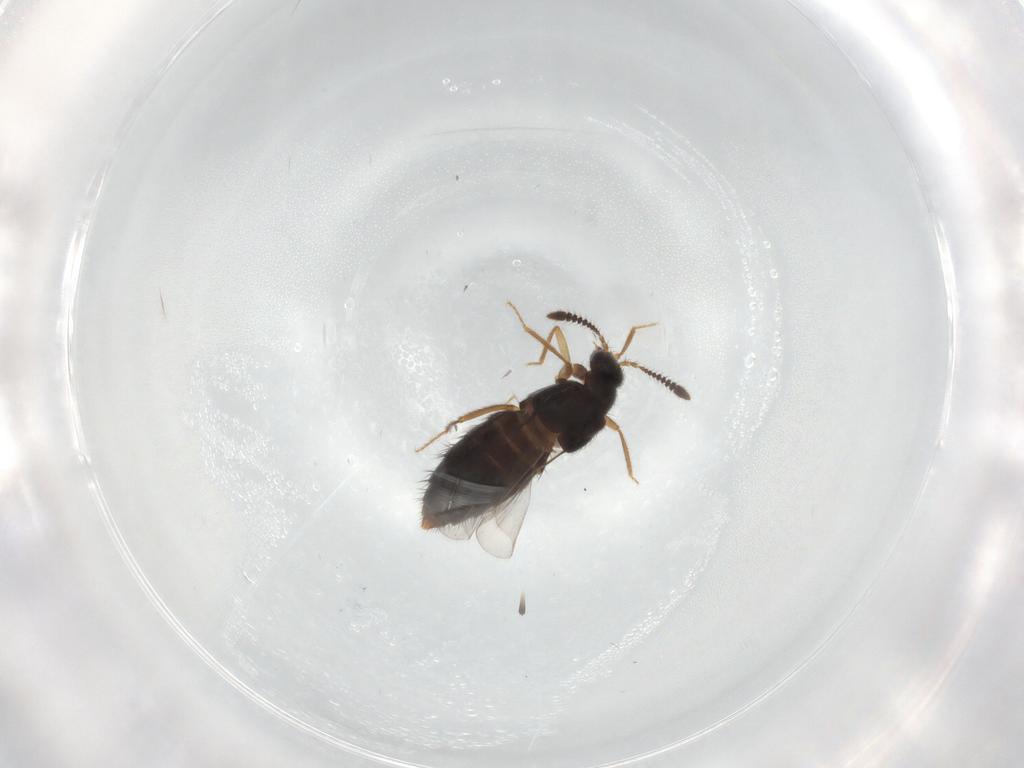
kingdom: Animalia
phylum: Arthropoda
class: Insecta
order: Coleoptera
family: Staphylinidae
